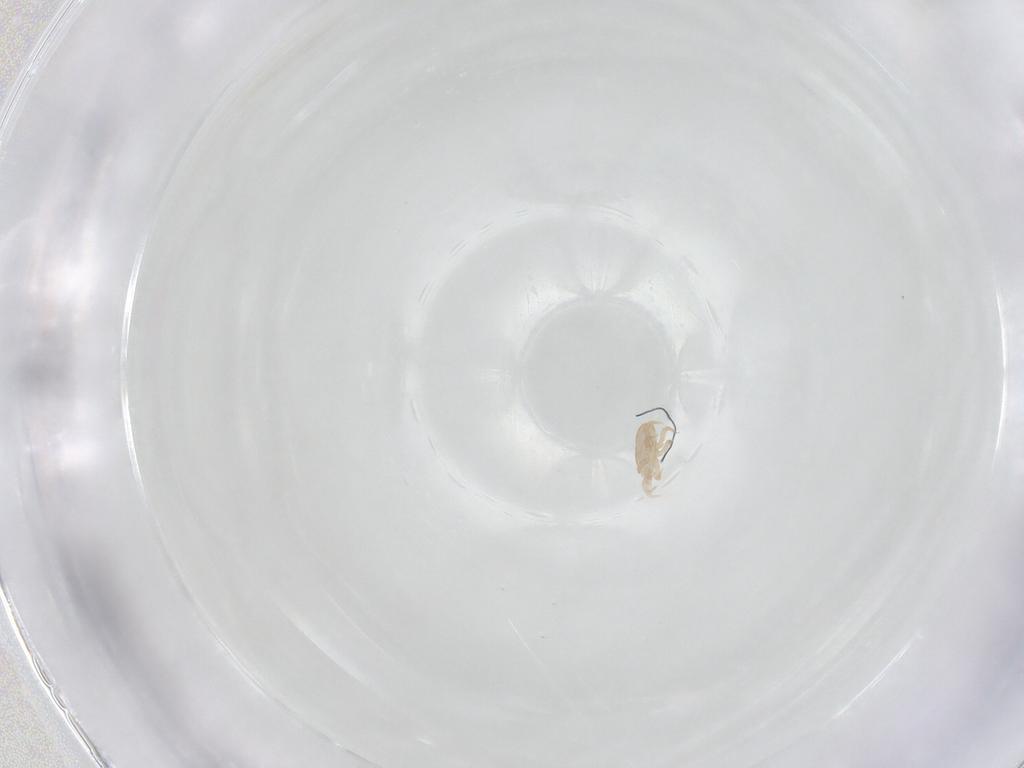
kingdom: Animalia
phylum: Arthropoda
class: Arachnida
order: Mesostigmata
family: Halolaelapidae
